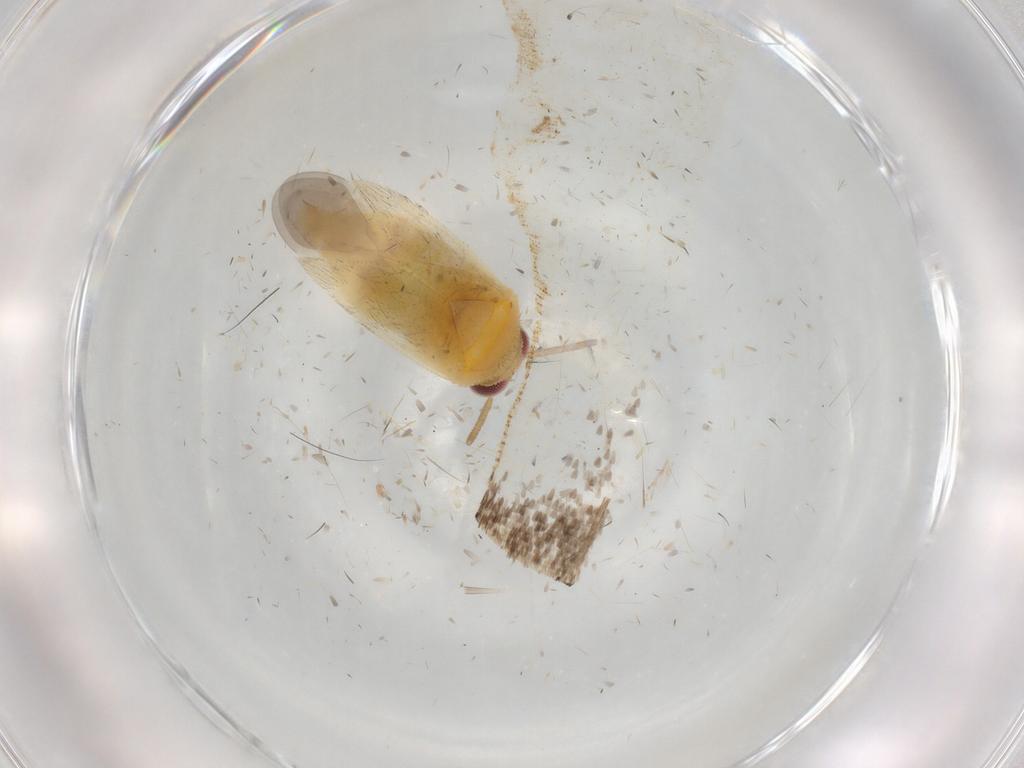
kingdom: Animalia
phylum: Arthropoda
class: Insecta
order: Hemiptera
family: Miridae
